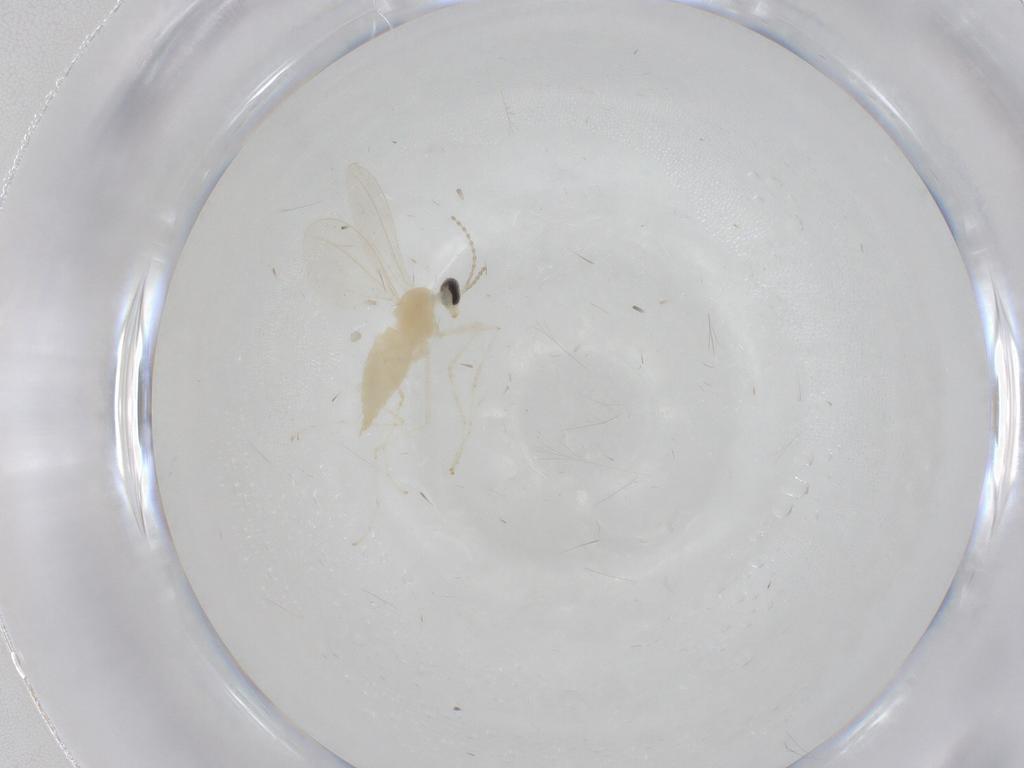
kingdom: Animalia
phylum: Arthropoda
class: Insecta
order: Diptera
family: Cecidomyiidae
